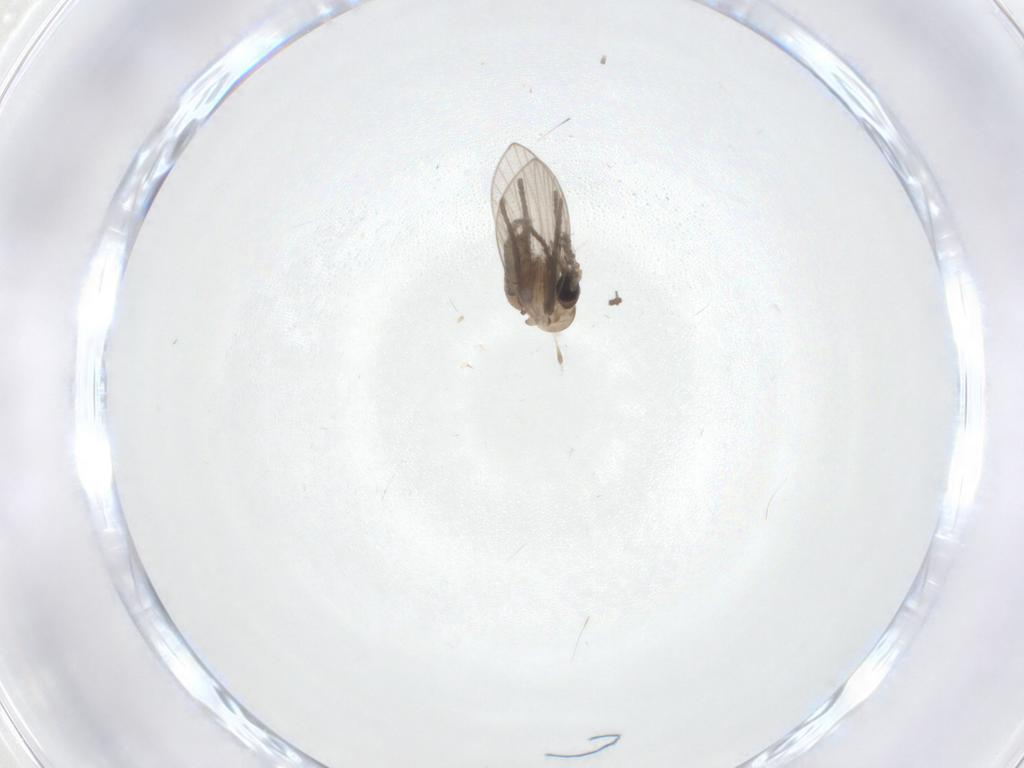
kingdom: Animalia
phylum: Arthropoda
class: Insecta
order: Diptera
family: Psychodidae
